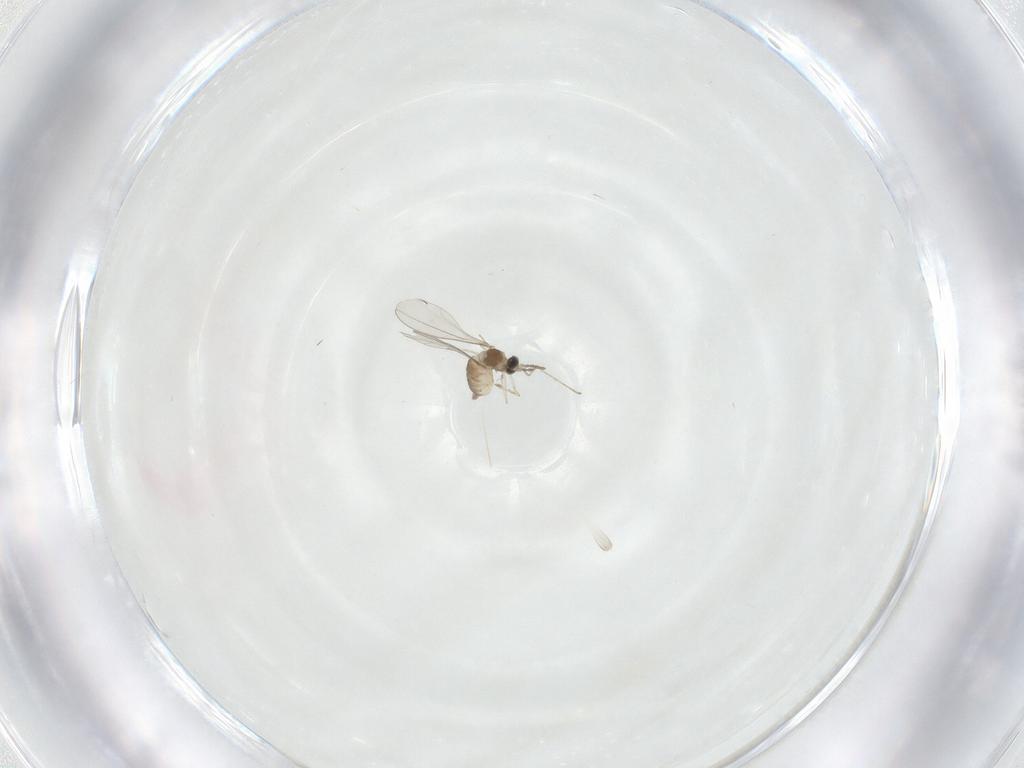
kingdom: Animalia
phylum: Arthropoda
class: Insecta
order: Diptera
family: Cecidomyiidae
